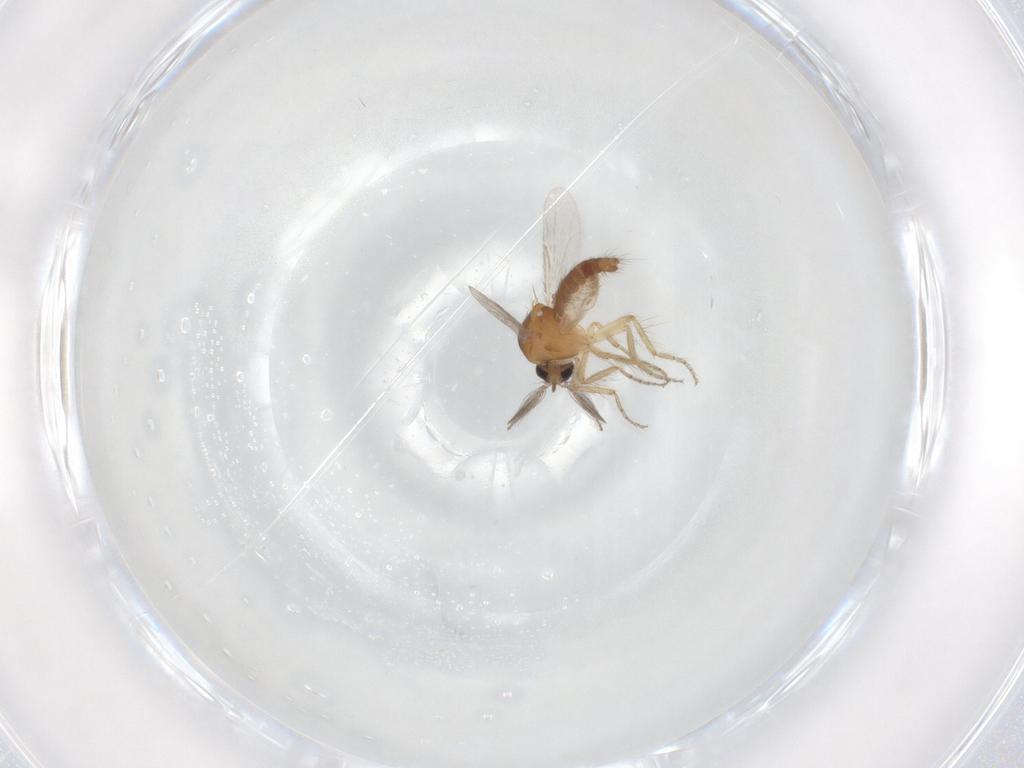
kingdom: Animalia
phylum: Arthropoda
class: Insecta
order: Diptera
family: Ceratopogonidae
